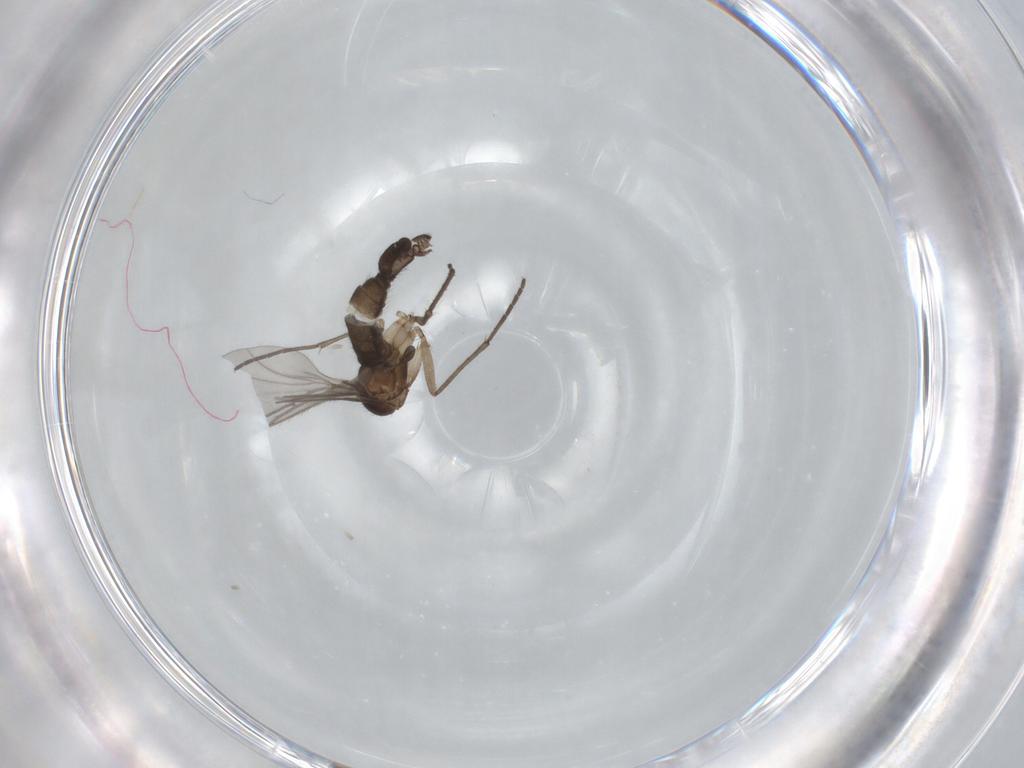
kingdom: Animalia
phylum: Arthropoda
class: Insecta
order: Diptera
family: Sciaridae
